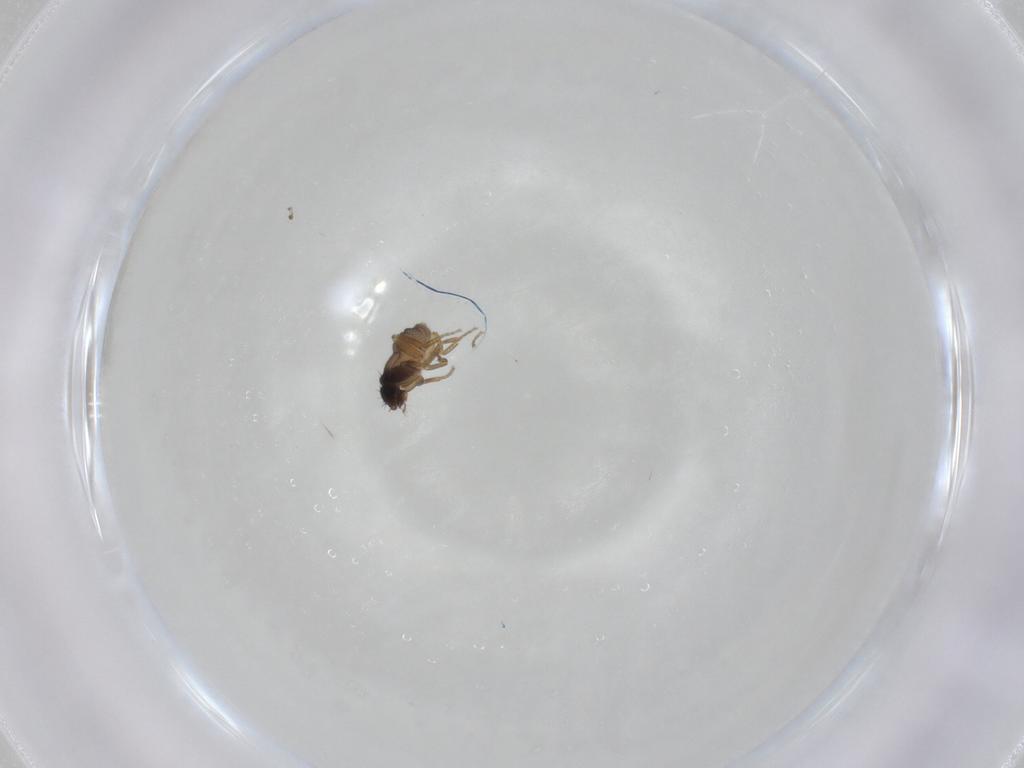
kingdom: Animalia
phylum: Arthropoda
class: Insecta
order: Diptera
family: Phoridae
